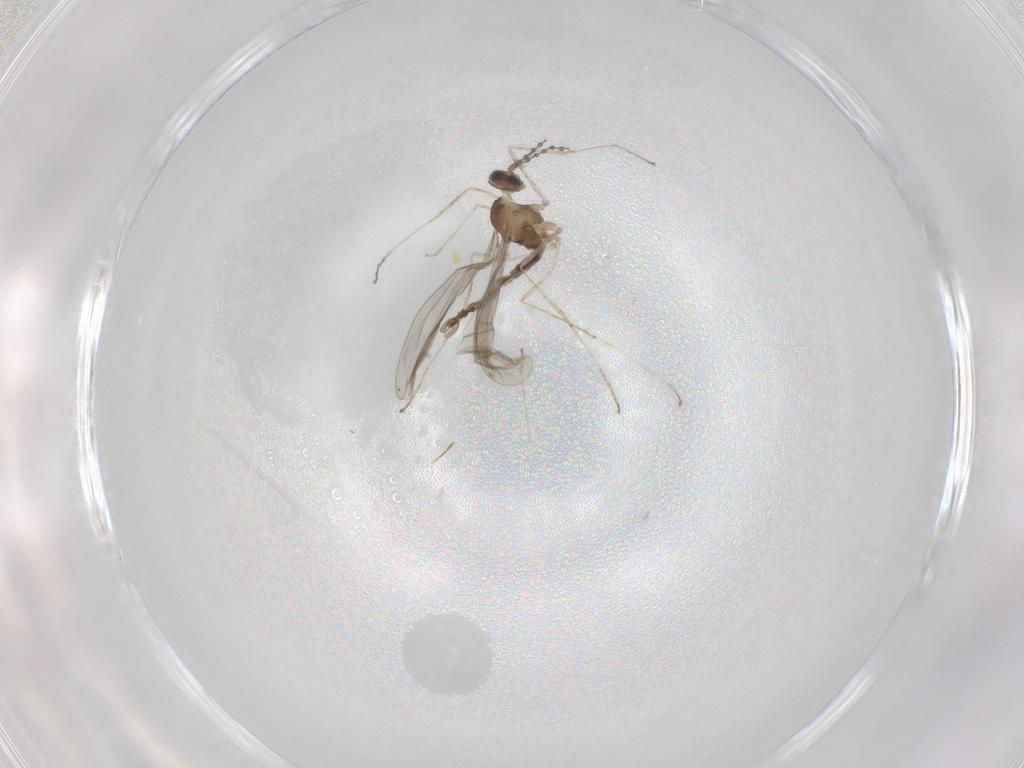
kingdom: Animalia
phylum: Arthropoda
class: Insecta
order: Diptera
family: Cecidomyiidae
